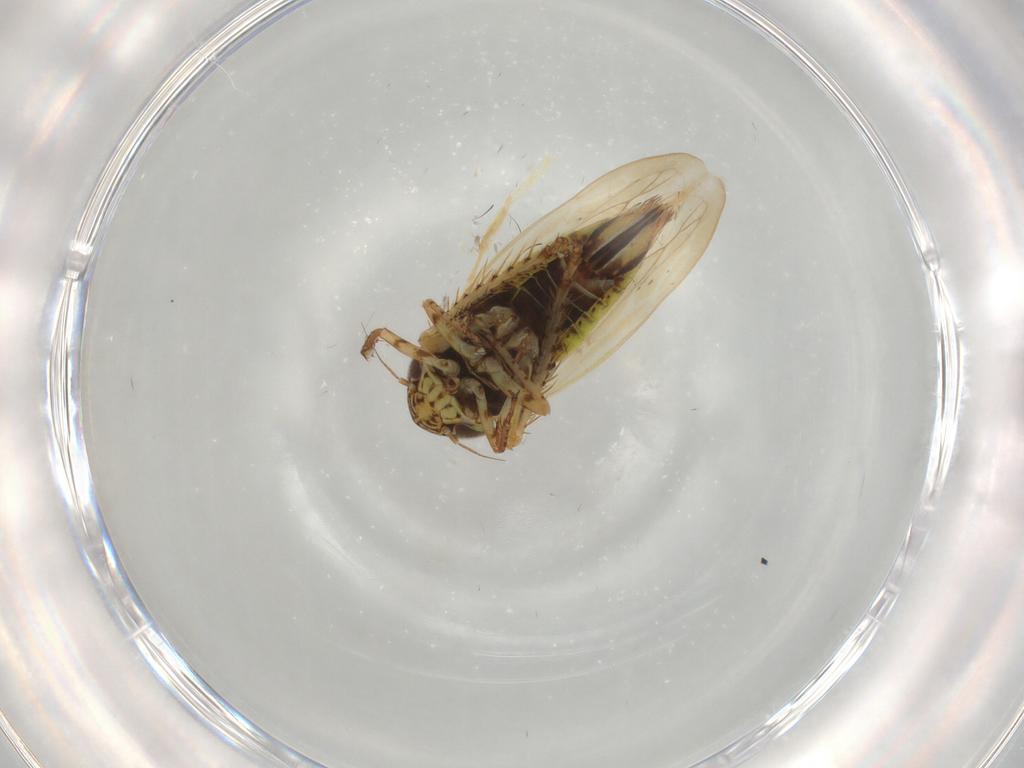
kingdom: Animalia
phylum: Arthropoda
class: Insecta
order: Hemiptera
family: Cicadellidae
